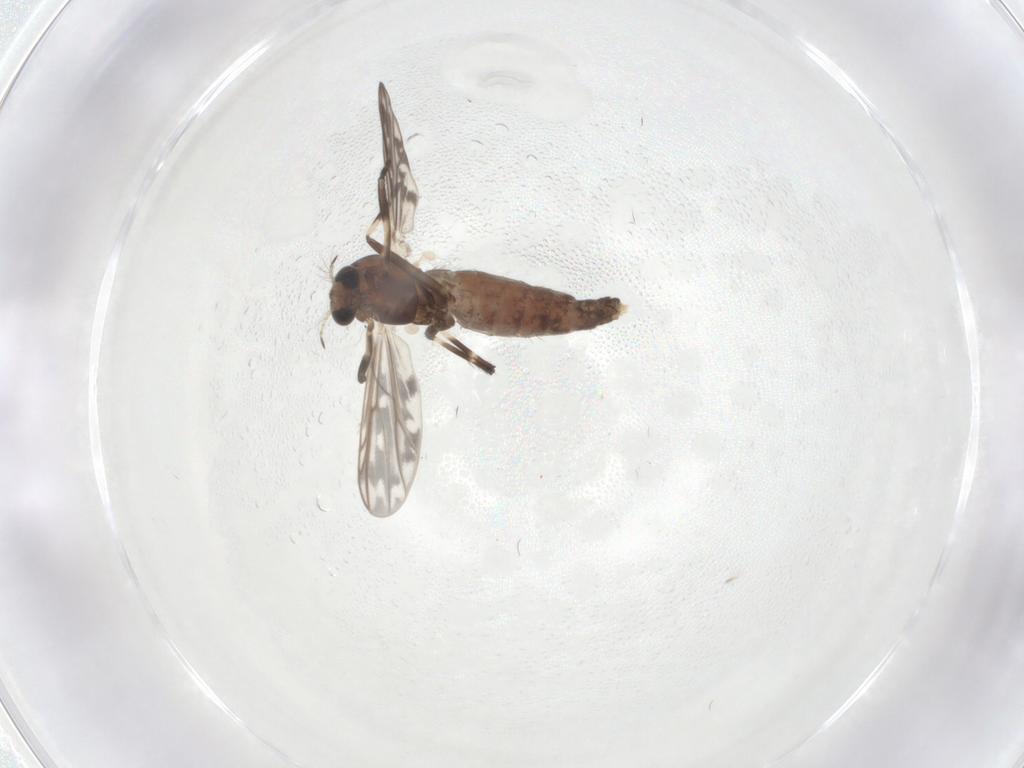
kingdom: Animalia
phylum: Arthropoda
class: Insecta
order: Diptera
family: Chironomidae
